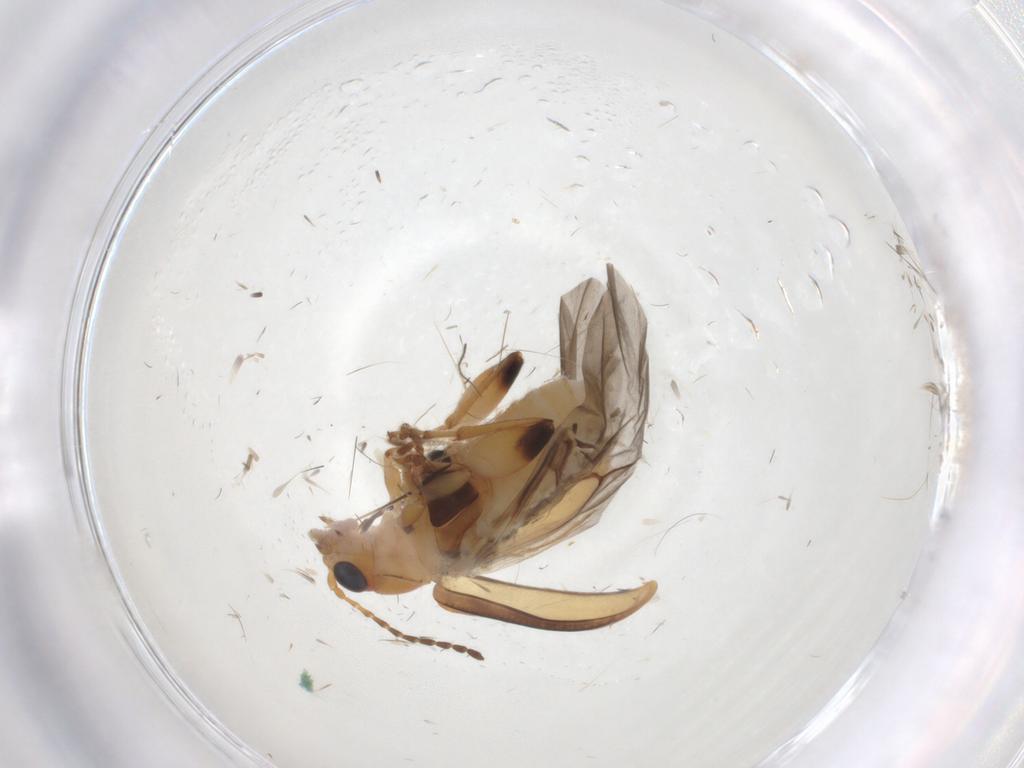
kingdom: Animalia
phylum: Arthropoda
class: Insecta
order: Coleoptera
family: Chrysomelidae
